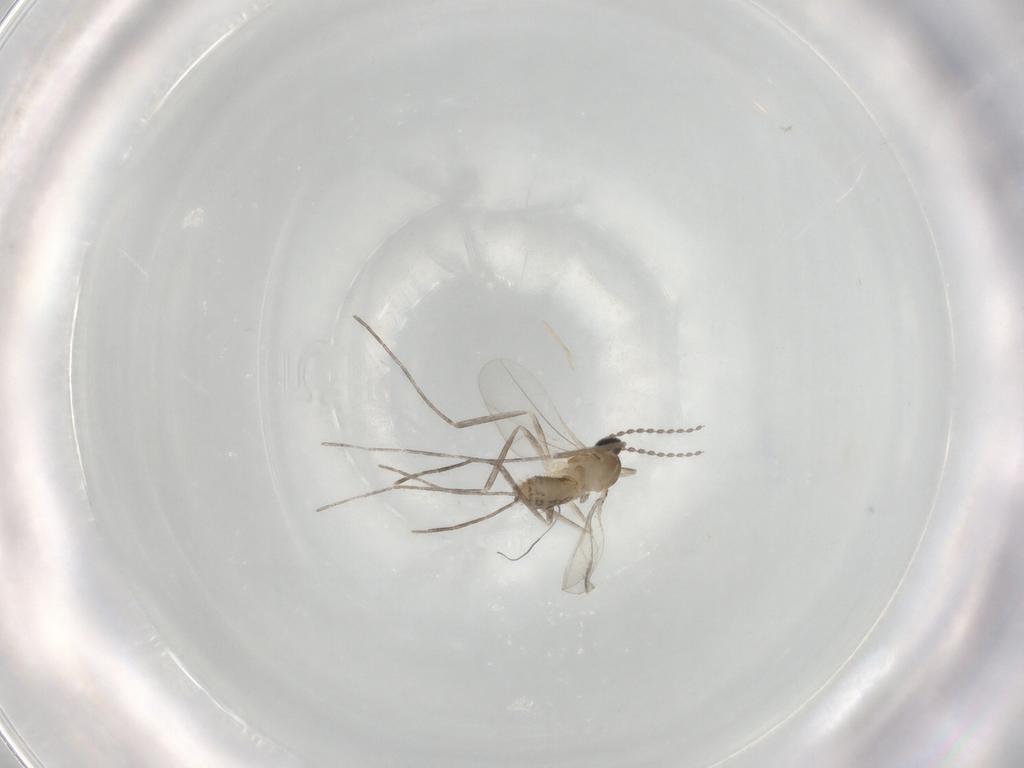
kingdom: Animalia
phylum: Arthropoda
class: Insecta
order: Diptera
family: Cecidomyiidae
